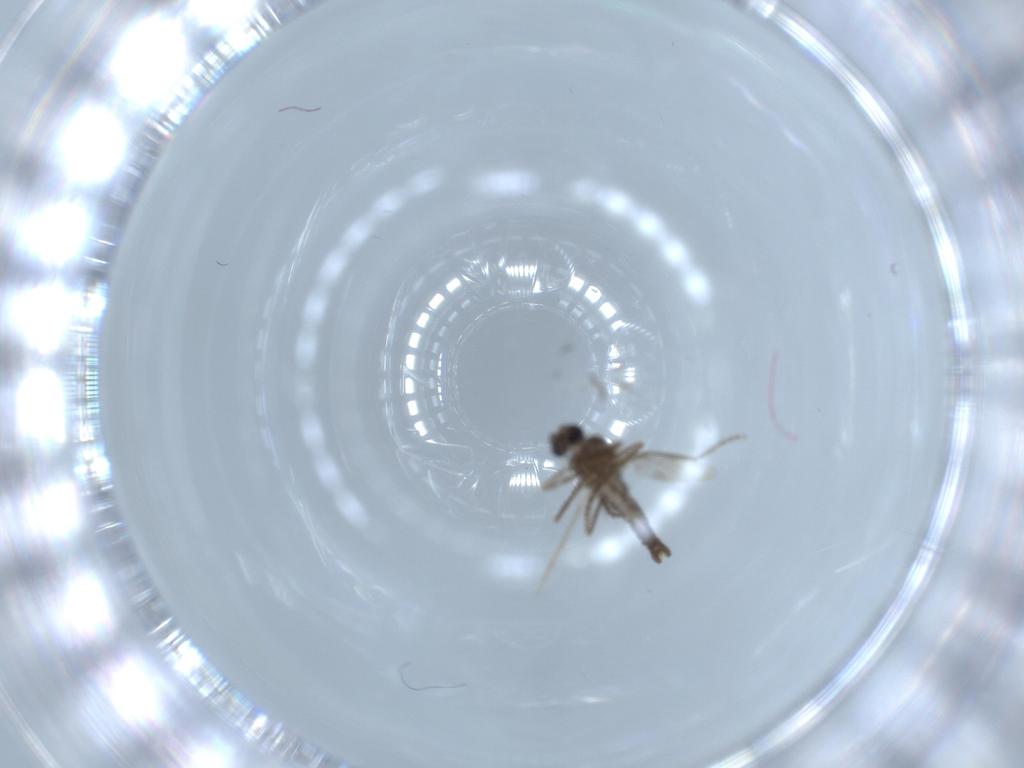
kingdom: Animalia
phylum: Arthropoda
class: Insecta
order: Diptera
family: Ceratopogonidae
